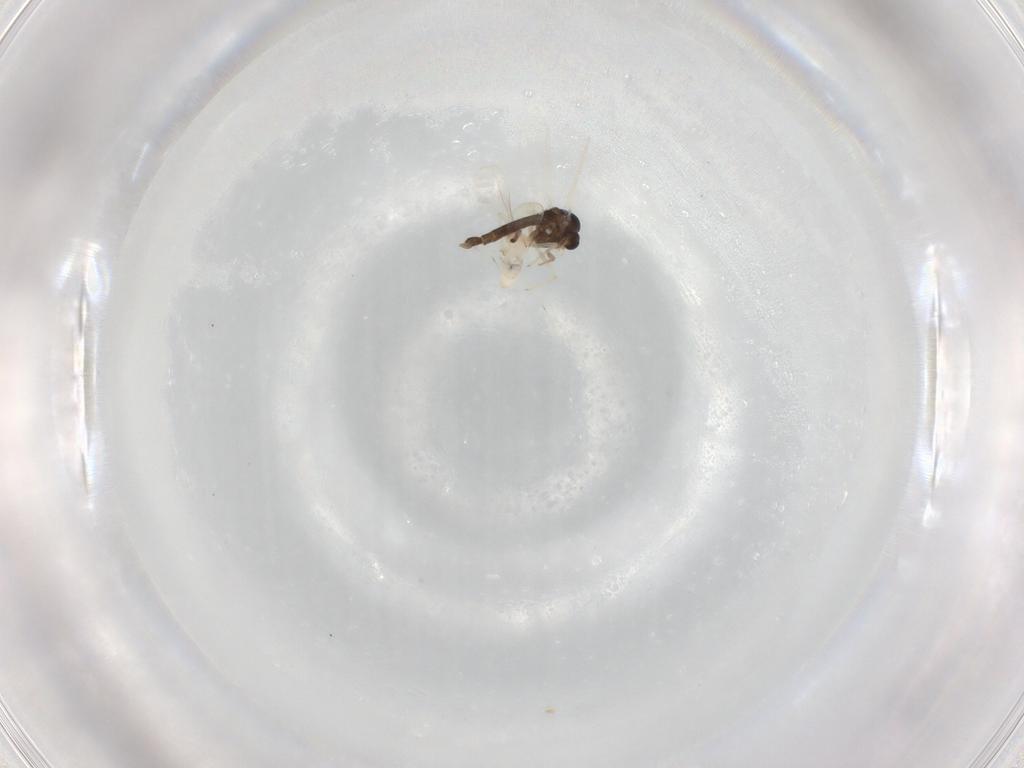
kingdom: Animalia
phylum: Arthropoda
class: Insecta
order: Diptera
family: Cecidomyiidae
